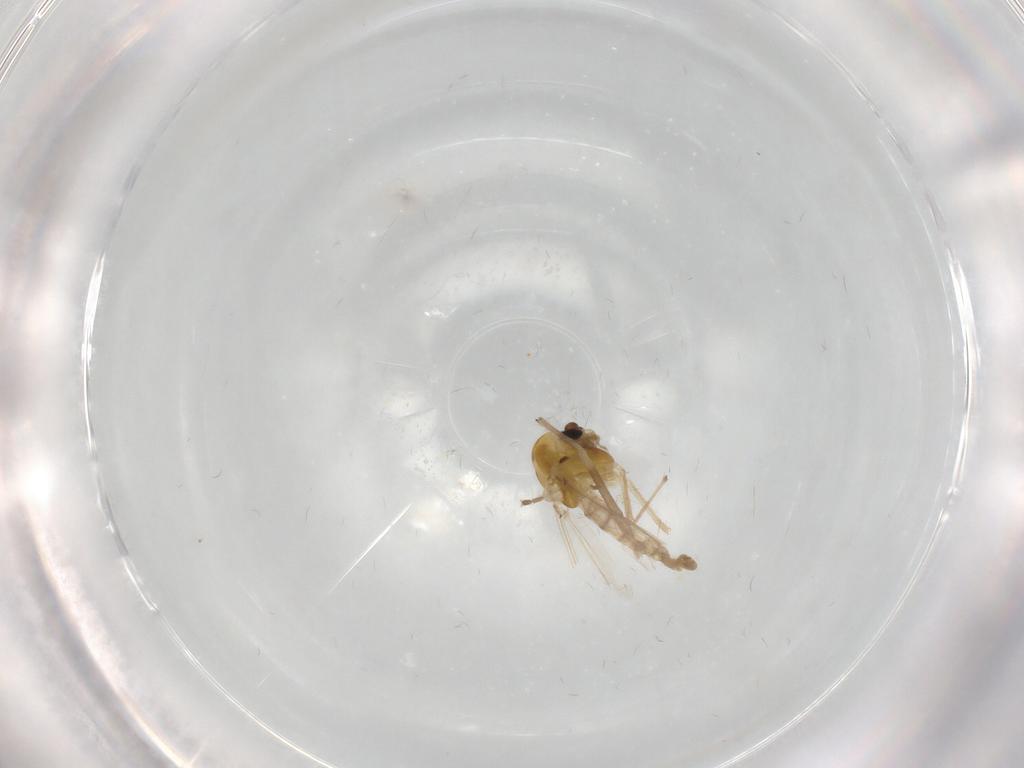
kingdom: Animalia
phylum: Arthropoda
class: Insecta
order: Diptera
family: Chironomidae
